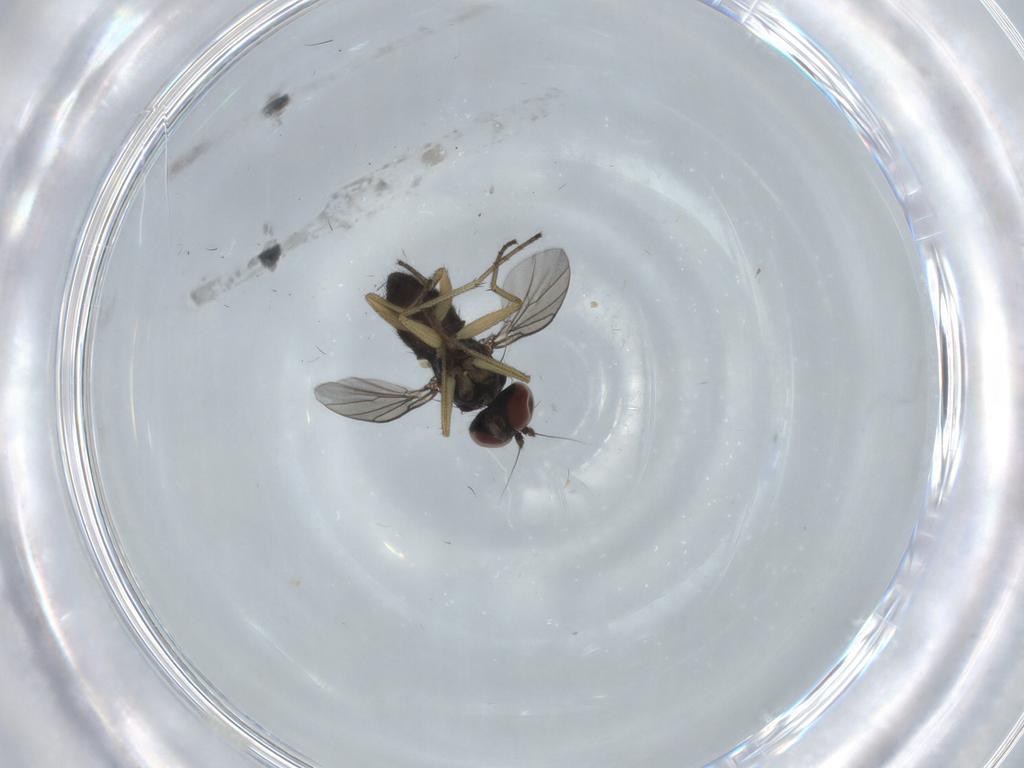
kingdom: Animalia
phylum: Arthropoda
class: Insecta
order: Diptera
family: Dolichopodidae
